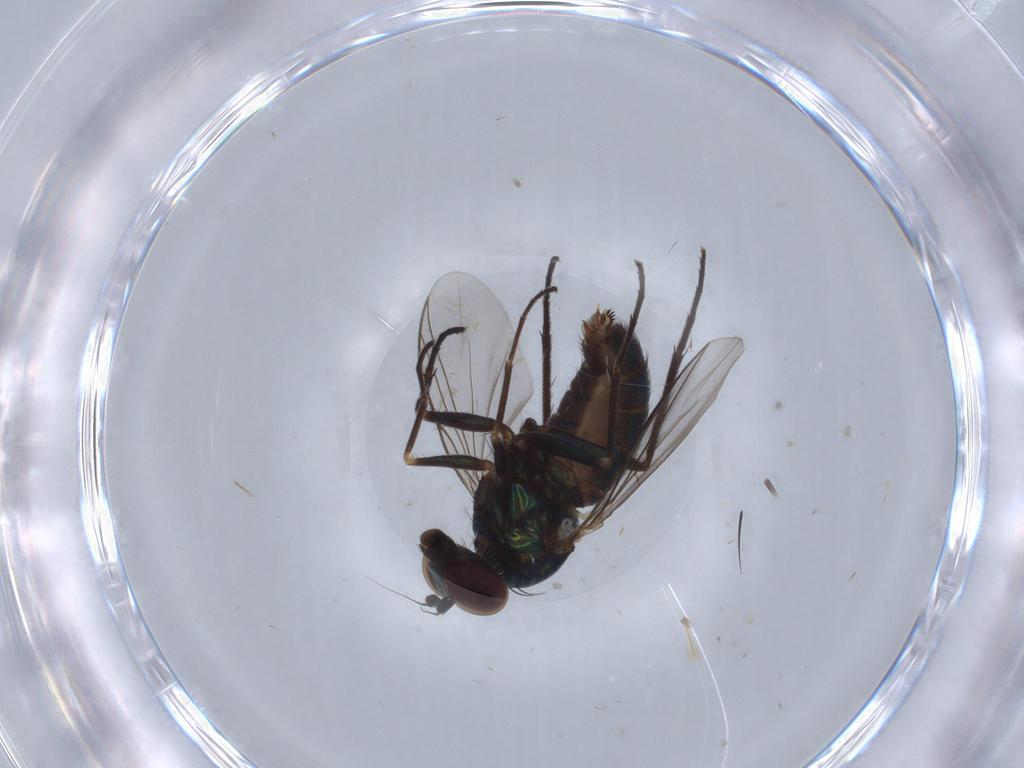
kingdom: Animalia
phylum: Arthropoda
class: Insecta
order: Diptera
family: Dolichopodidae
